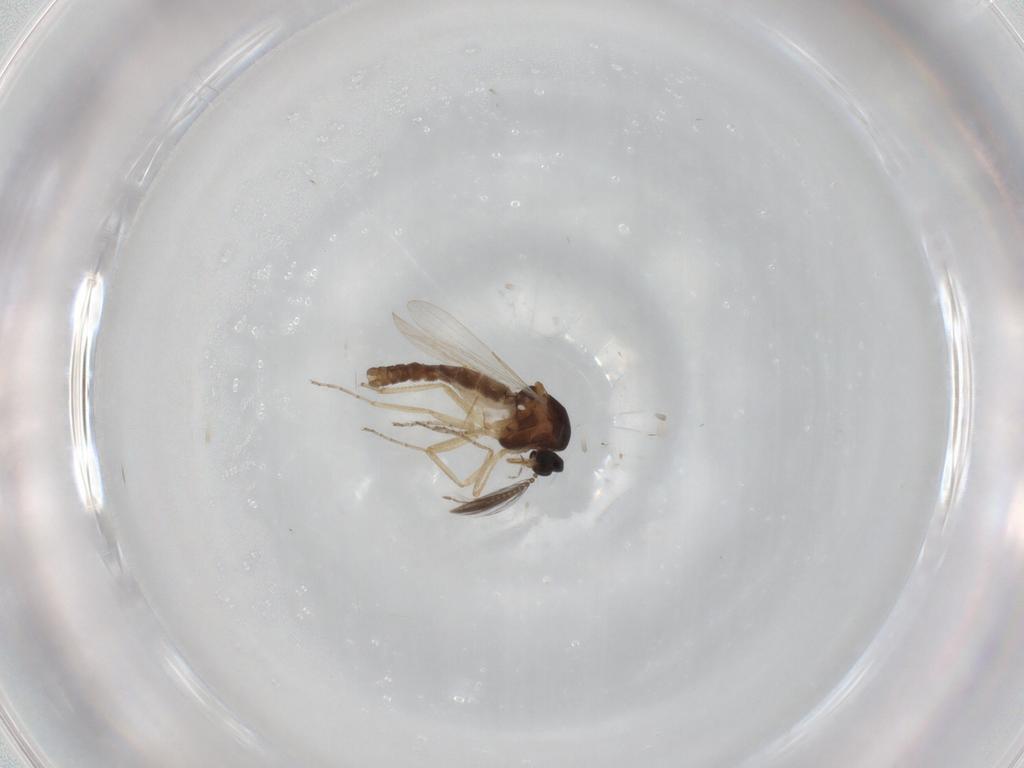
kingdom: Animalia
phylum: Arthropoda
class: Insecta
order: Diptera
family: Ceratopogonidae
